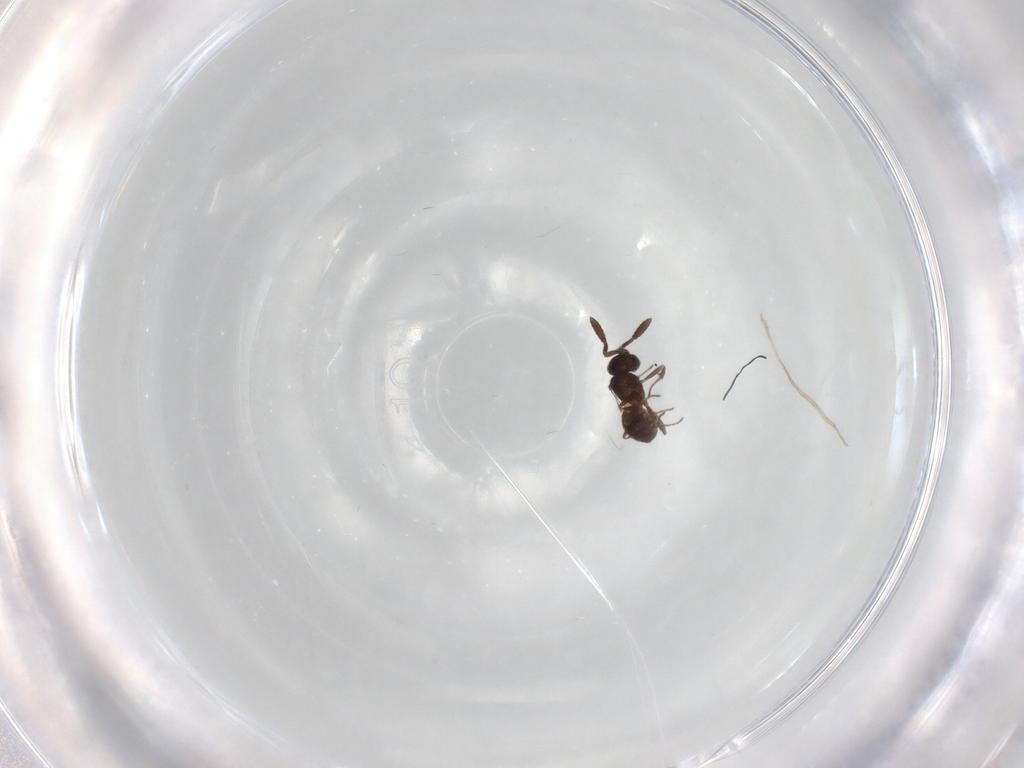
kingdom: Animalia
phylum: Arthropoda
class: Insecta
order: Hymenoptera
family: Scelionidae
